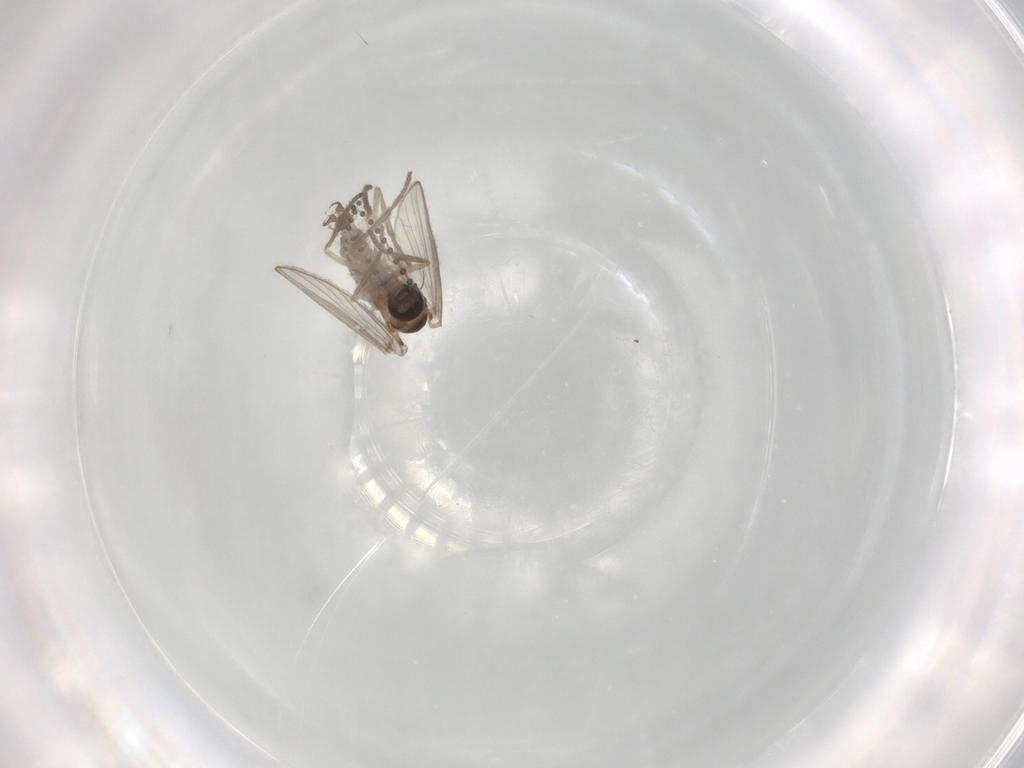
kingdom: Animalia
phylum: Arthropoda
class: Insecta
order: Diptera
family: Psychodidae
